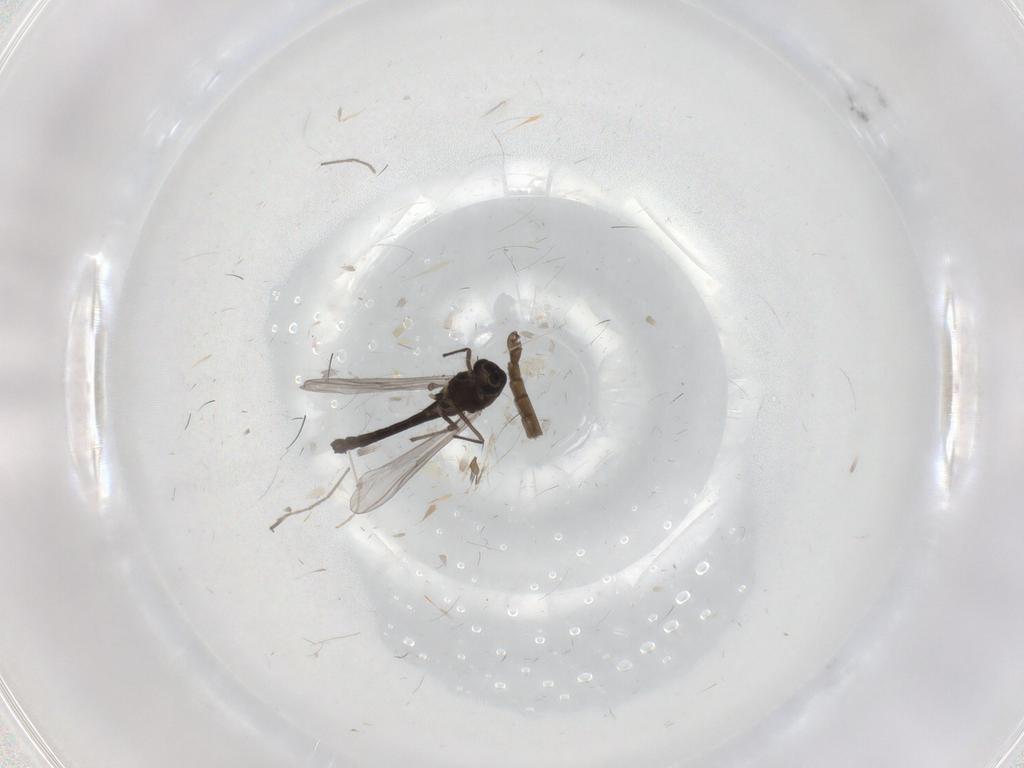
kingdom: Animalia
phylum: Arthropoda
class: Insecta
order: Diptera
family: Chironomidae
